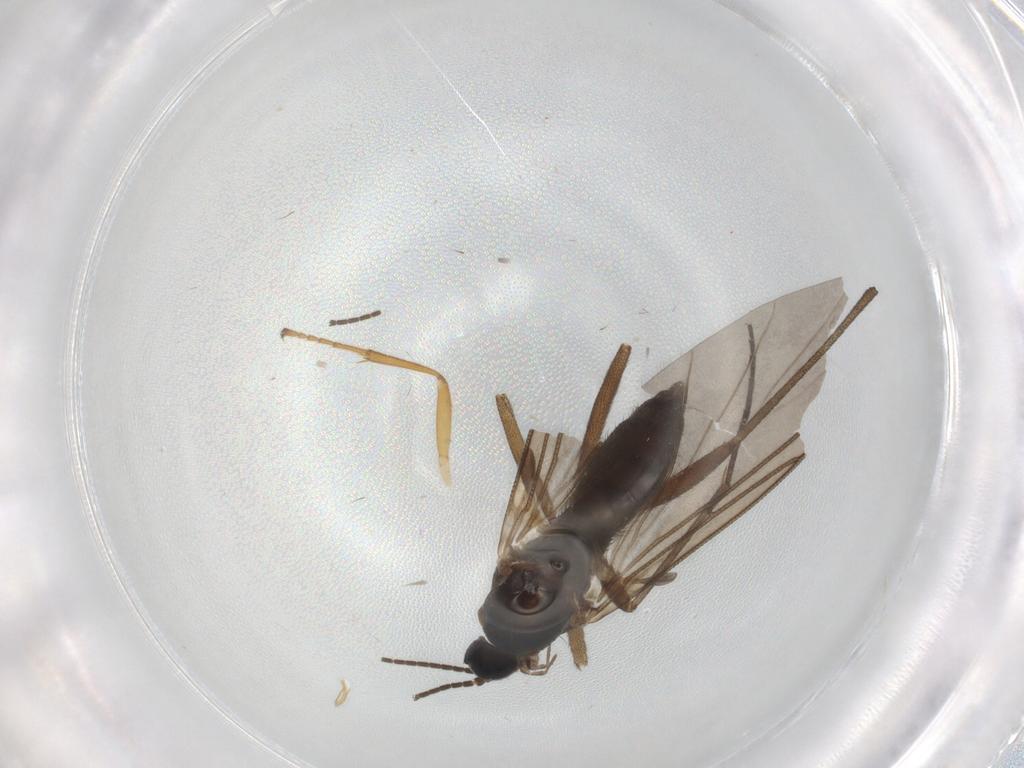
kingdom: Animalia
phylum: Arthropoda
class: Insecta
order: Diptera
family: Sciaridae
